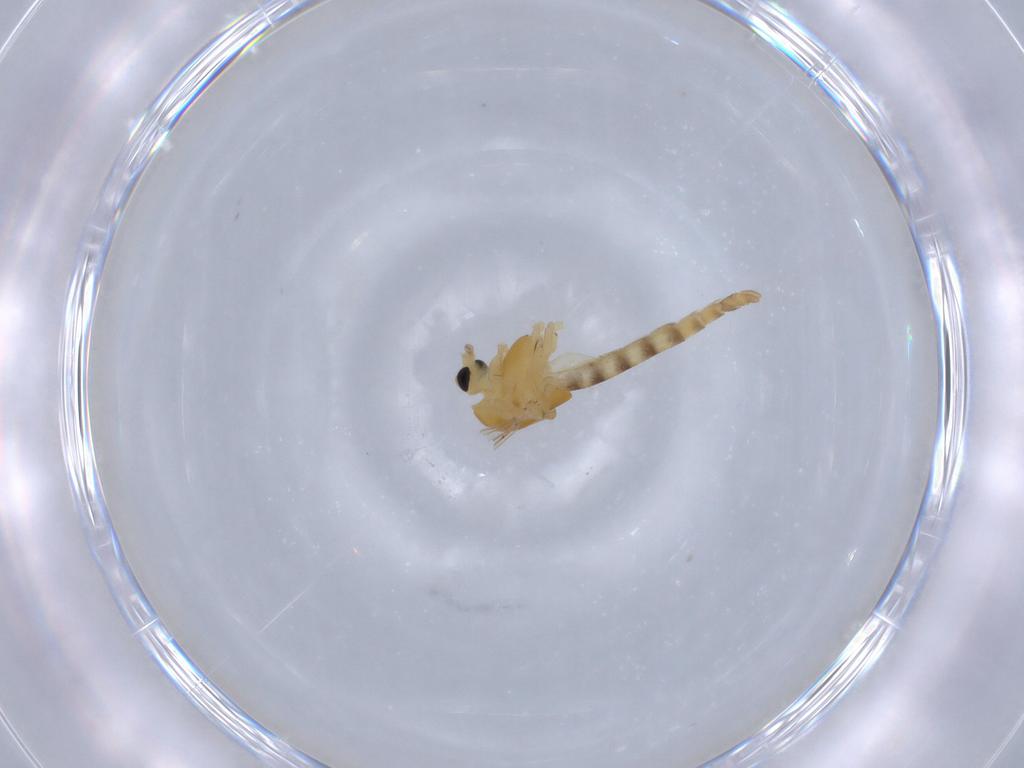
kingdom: Animalia
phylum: Arthropoda
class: Insecta
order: Diptera
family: Chironomidae
